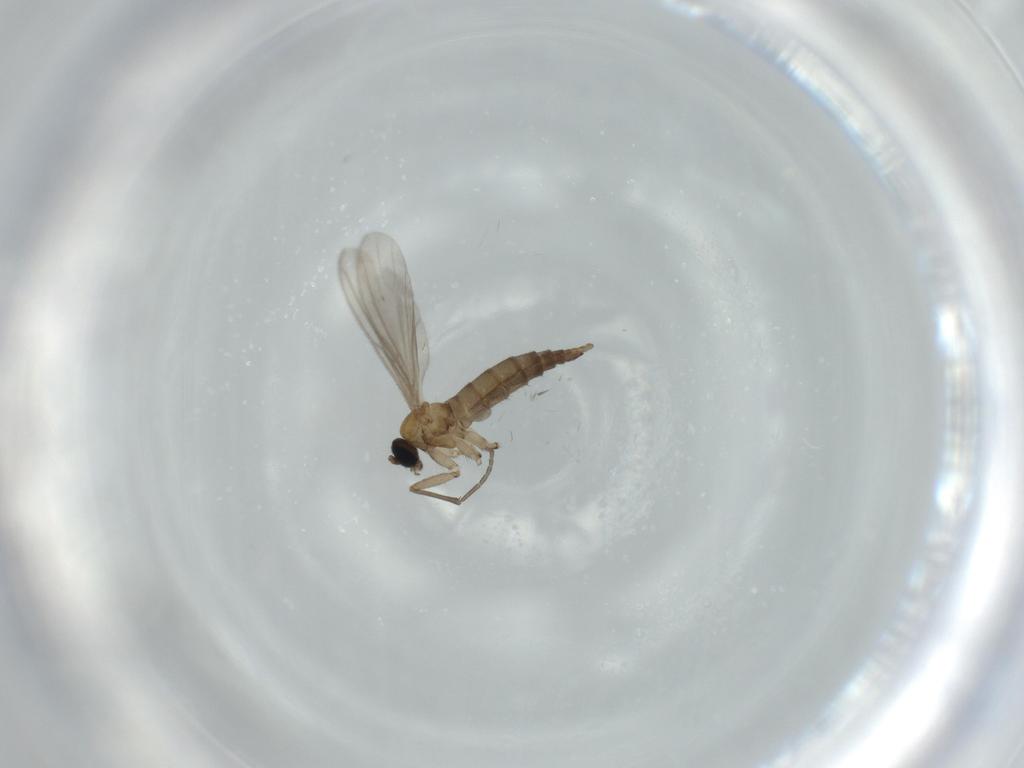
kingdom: Animalia
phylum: Arthropoda
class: Insecta
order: Diptera
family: Sciaridae
